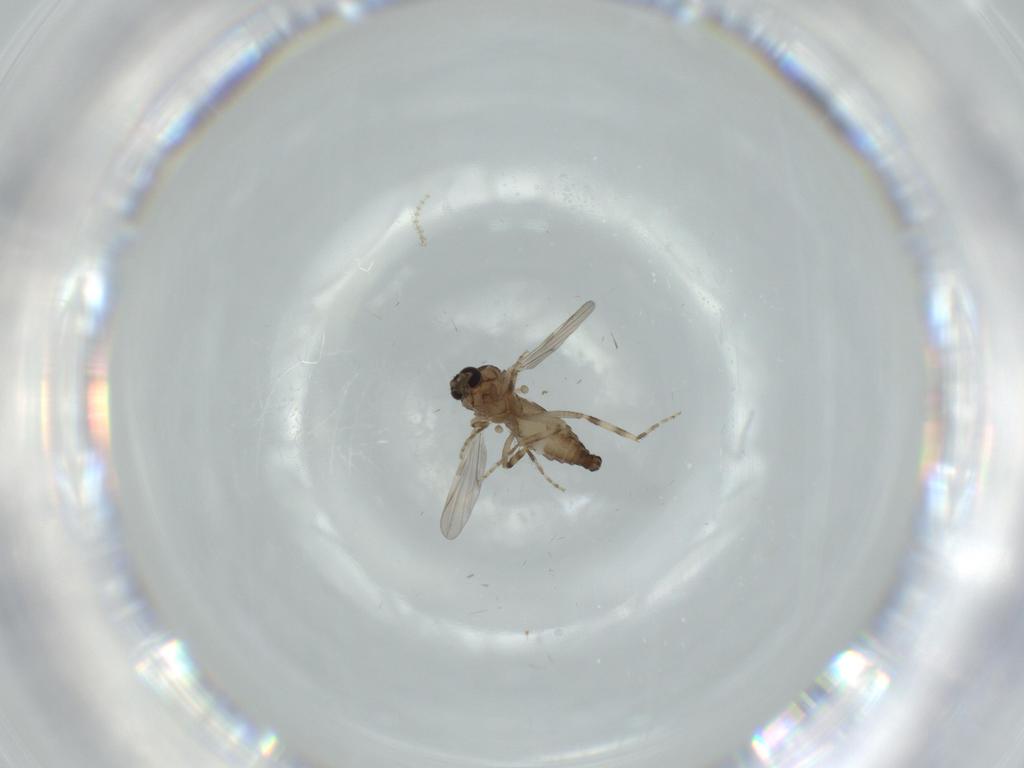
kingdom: Animalia
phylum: Arthropoda
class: Insecta
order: Diptera
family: Ceratopogonidae
